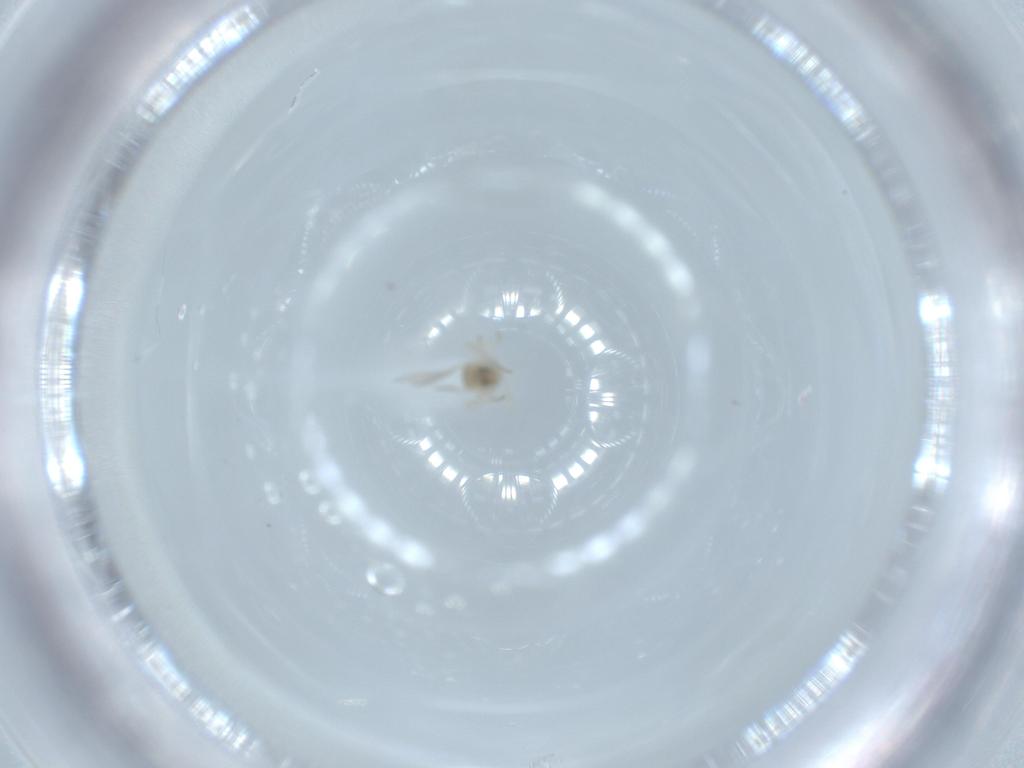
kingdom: Animalia
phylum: Arthropoda
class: Insecta
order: Diptera
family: Cecidomyiidae
